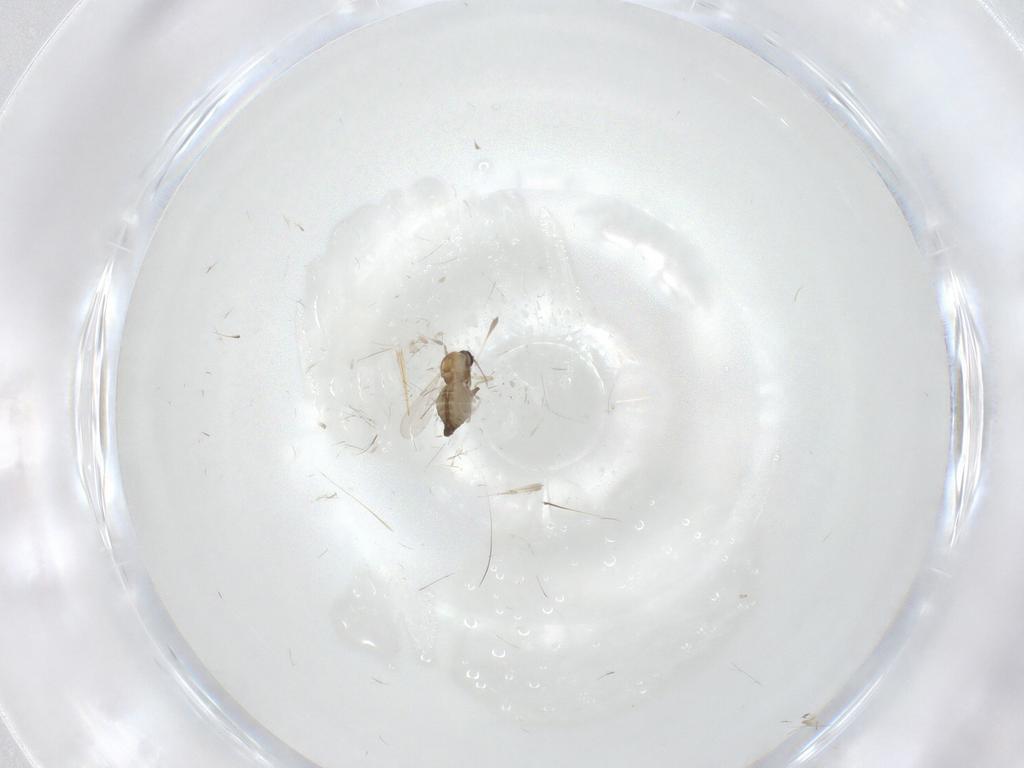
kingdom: Animalia
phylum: Arthropoda
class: Insecta
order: Diptera
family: Cecidomyiidae
